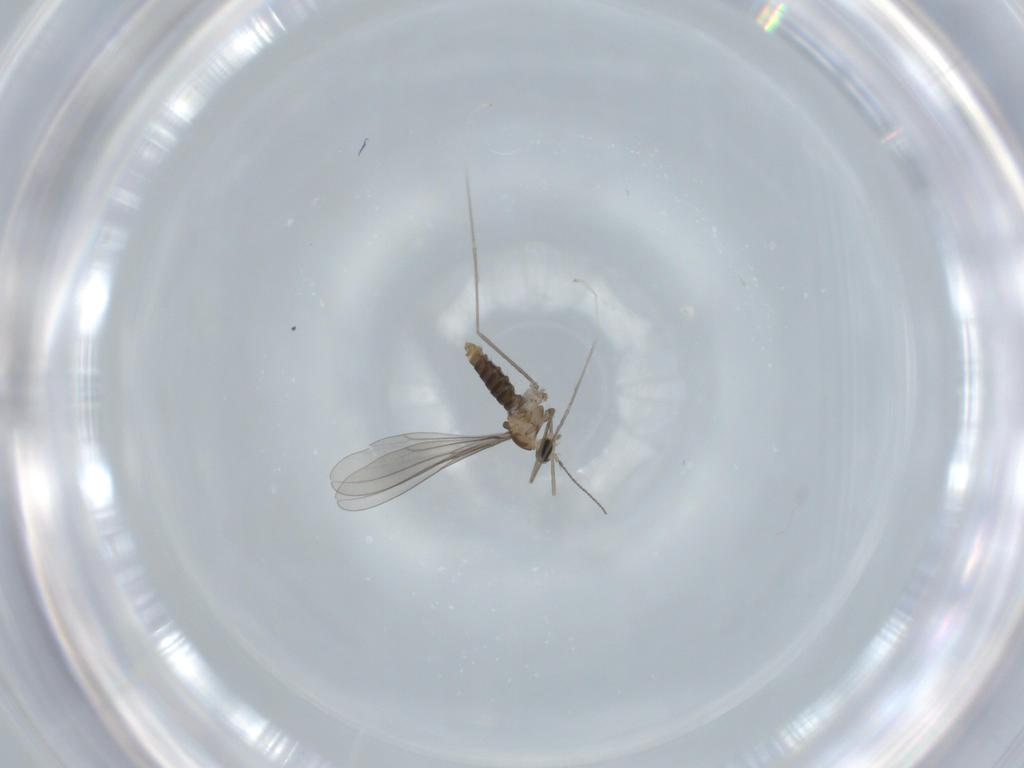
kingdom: Animalia
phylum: Arthropoda
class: Insecta
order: Diptera
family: Cecidomyiidae
